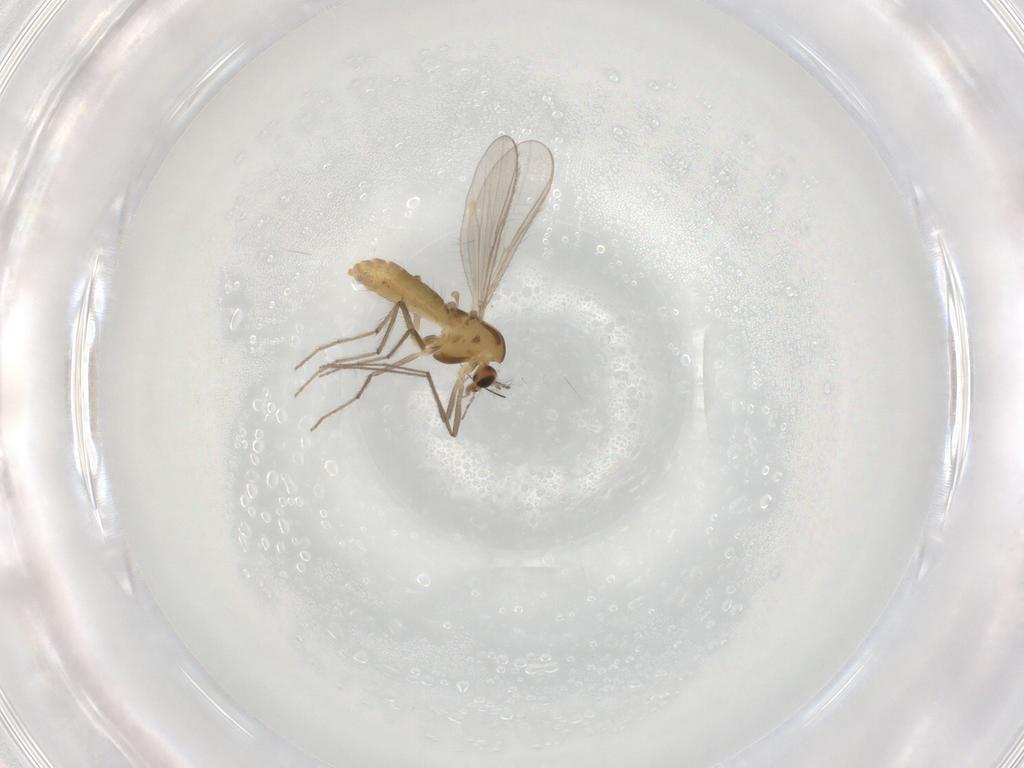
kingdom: Animalia
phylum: Arthropoda
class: Insecta
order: Diptera
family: Chironomidae
